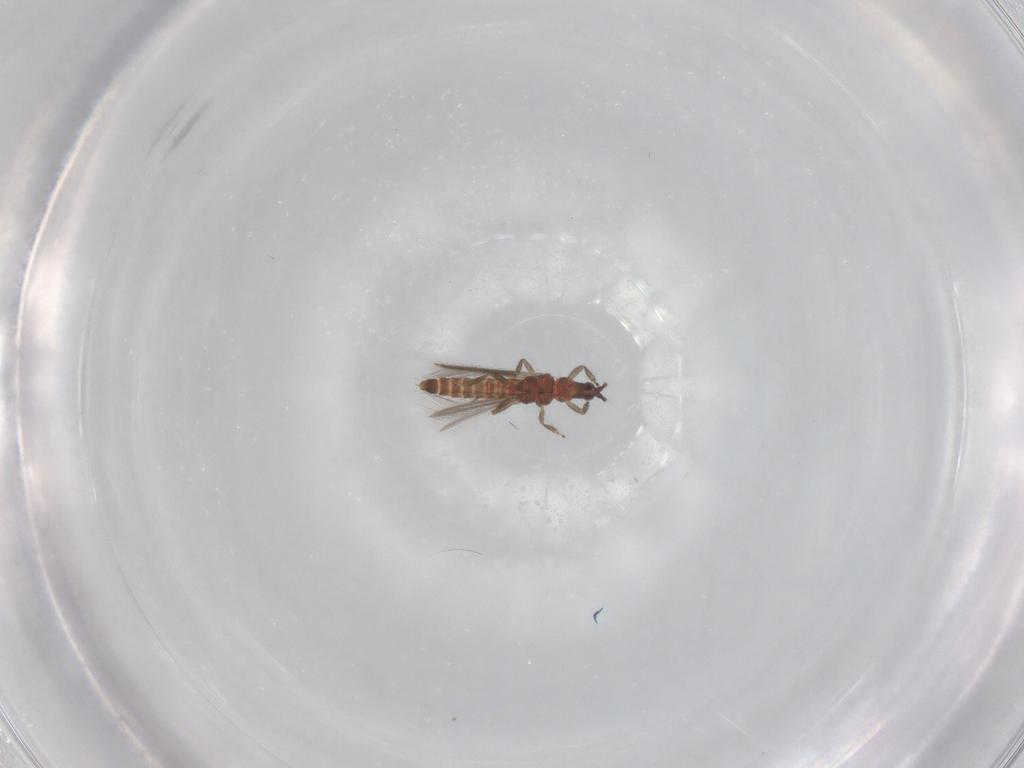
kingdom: Animalia
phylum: Arthropoda
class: Insecta
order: Thysanoptera
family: Thripidae
